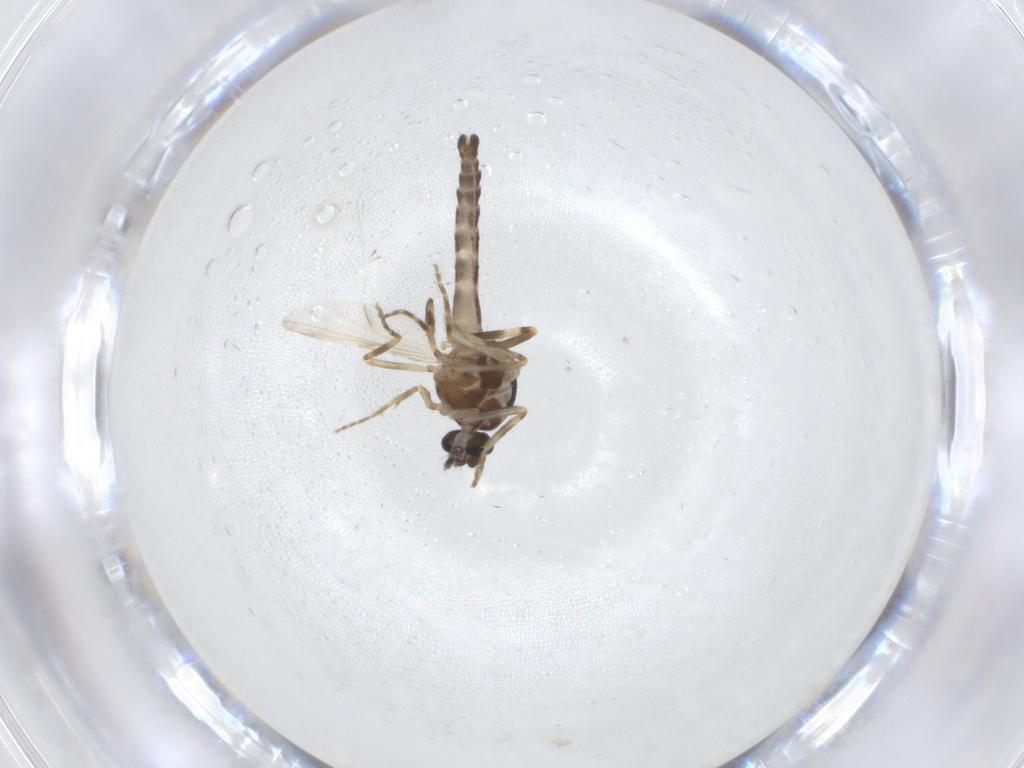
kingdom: Animalia
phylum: Arthropoda
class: Insecta
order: Diptera
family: Ceratopogonidae
